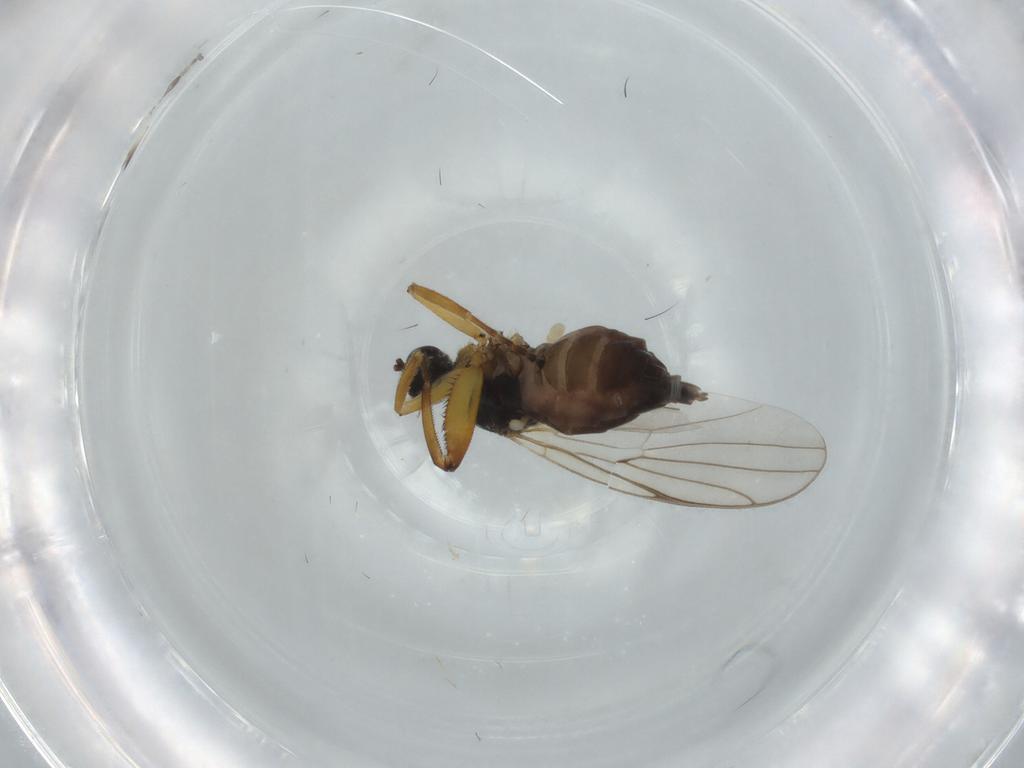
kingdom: Animalia
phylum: Arthropoda
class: Insecta
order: Diptera
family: Hybotidae
